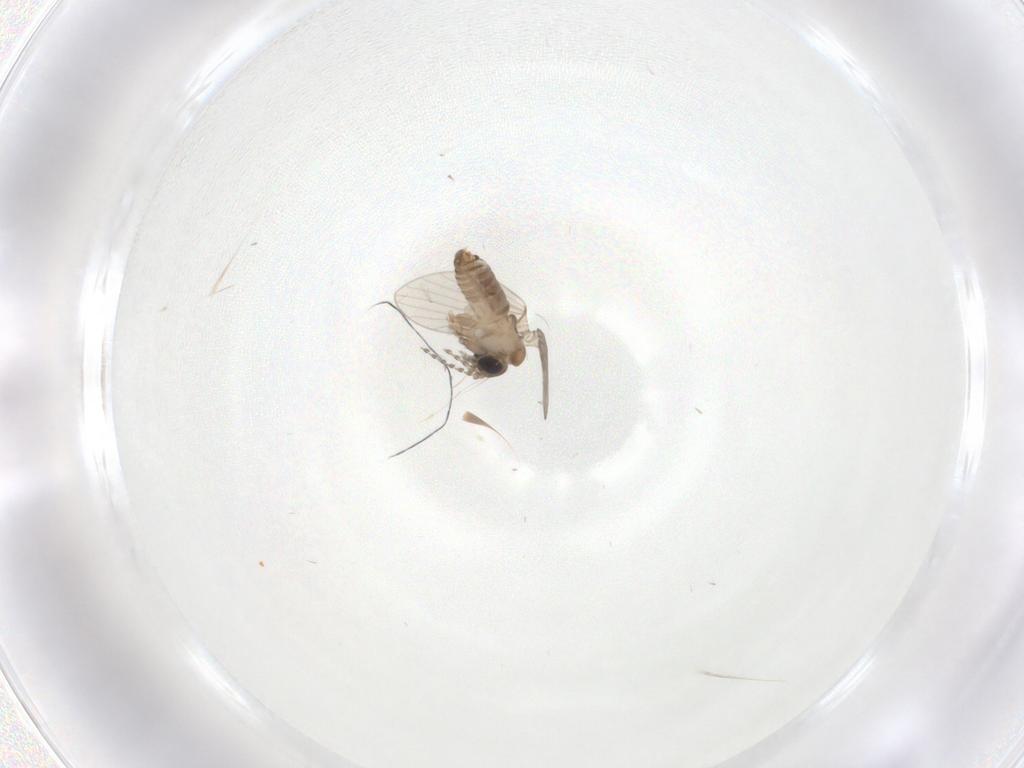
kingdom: Animalia
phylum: Arthropoda
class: Insecta
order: Diptera
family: Psychodidae
